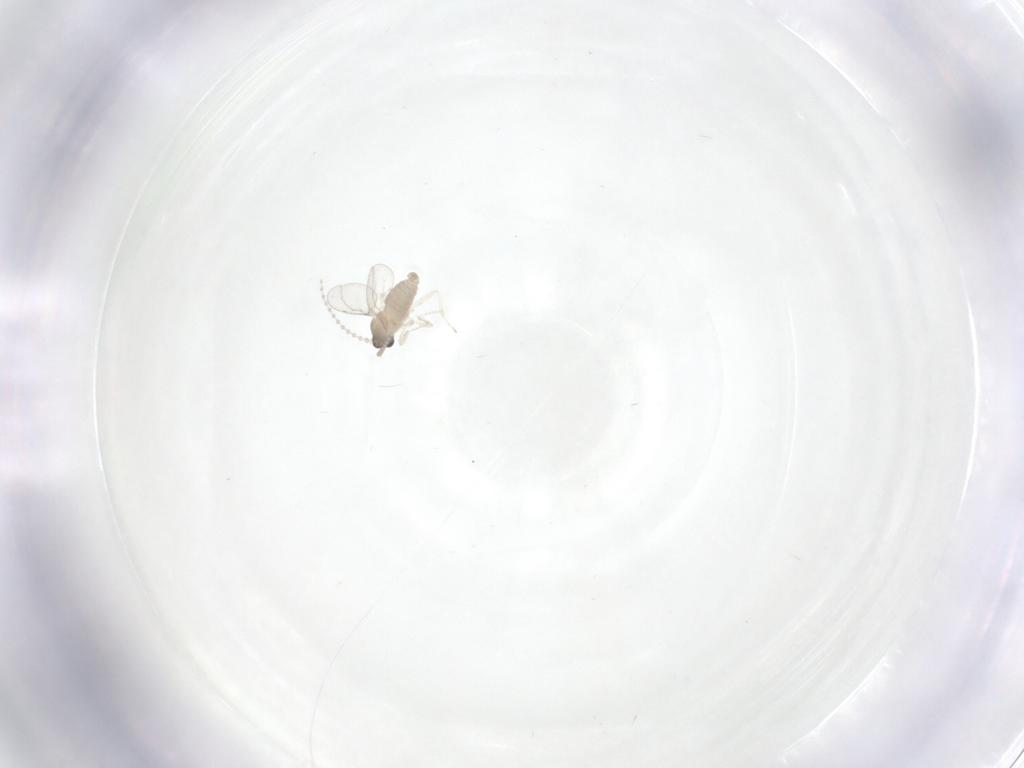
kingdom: Animalia
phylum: Arthropoda
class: Insecta
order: Diptera
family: Cecidomyiidae
